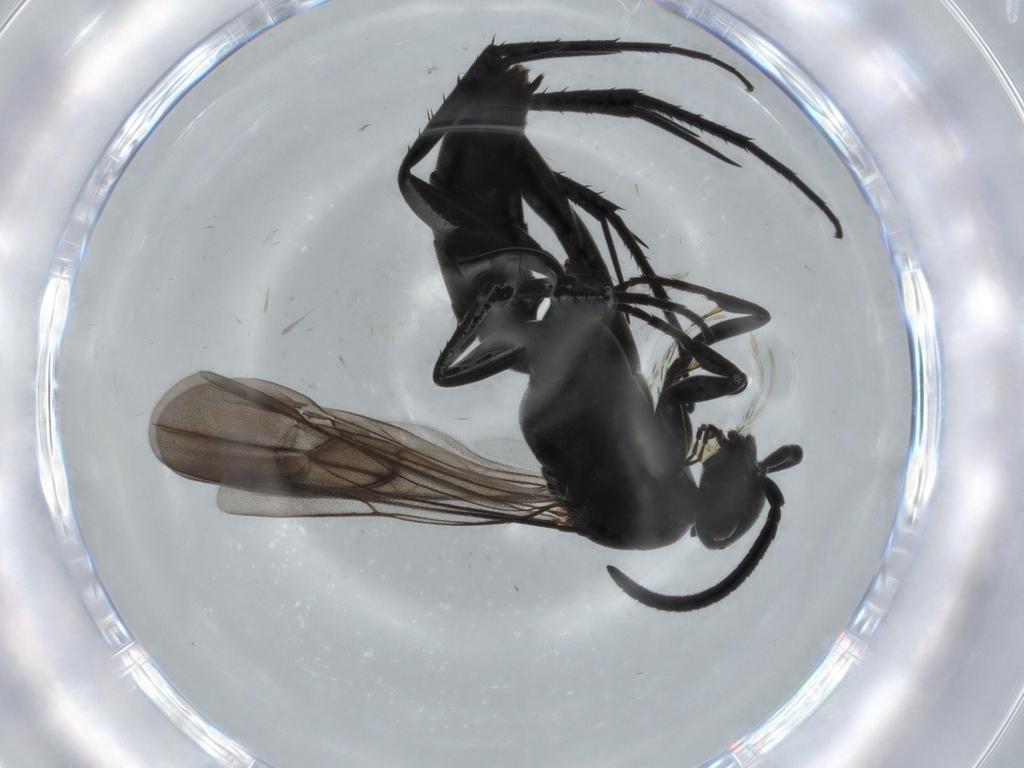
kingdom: Animalia
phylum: Arthropoda
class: Insecta
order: Hymenoptera
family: Pompilidae
